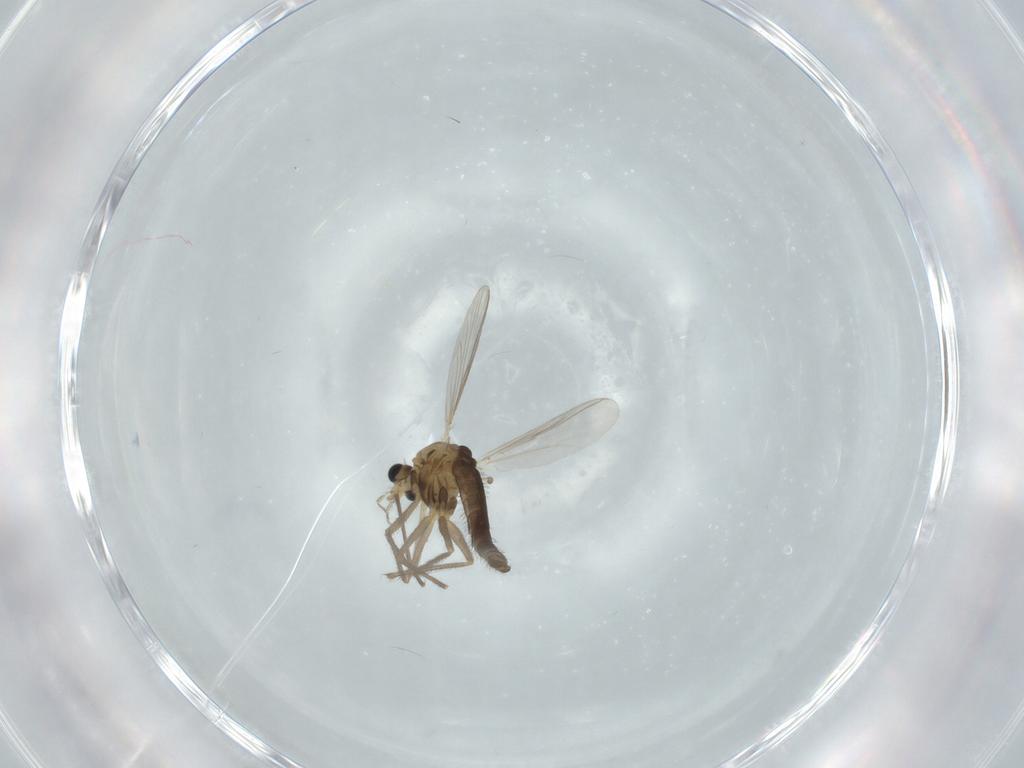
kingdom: Animalia
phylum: Arthropoda
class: Insecta
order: Diptera
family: Chironomidae
